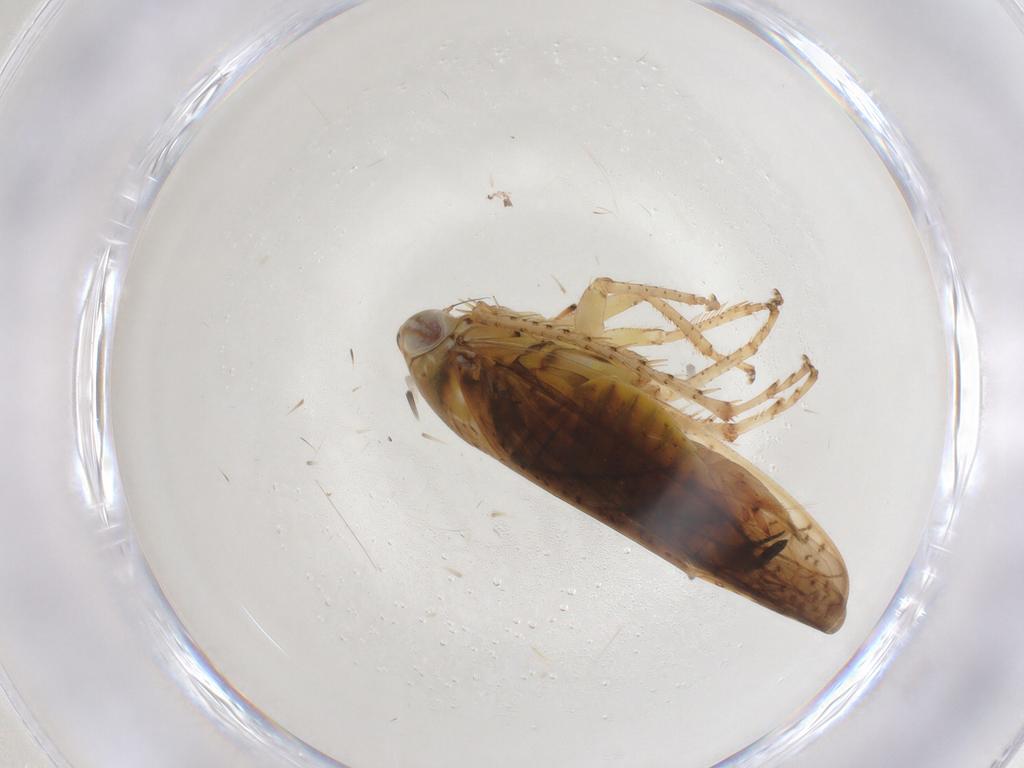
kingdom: Animalia
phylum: Arthropoda
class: Insecta
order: Hemiptera
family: Cicadellidae
